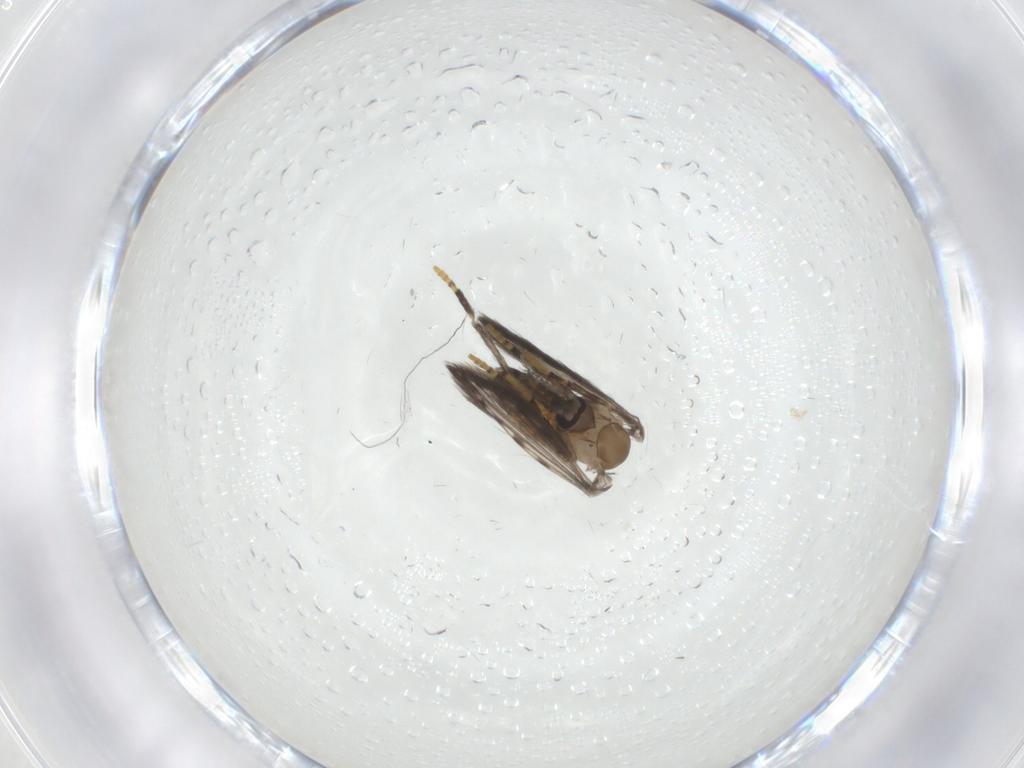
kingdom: Animalia
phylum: Arthropoda
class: Insecta
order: Diptera
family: Psychodidae
